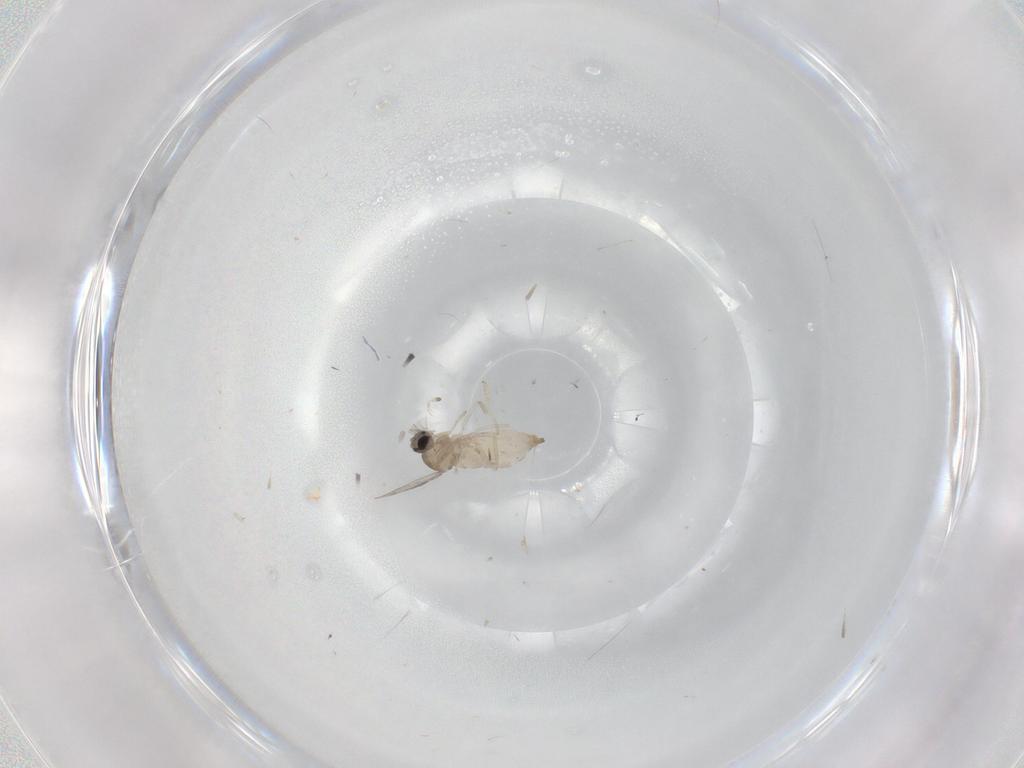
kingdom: Animalia
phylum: Arthropoda
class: Insecta
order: Diptera
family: Cecidomyiidae
